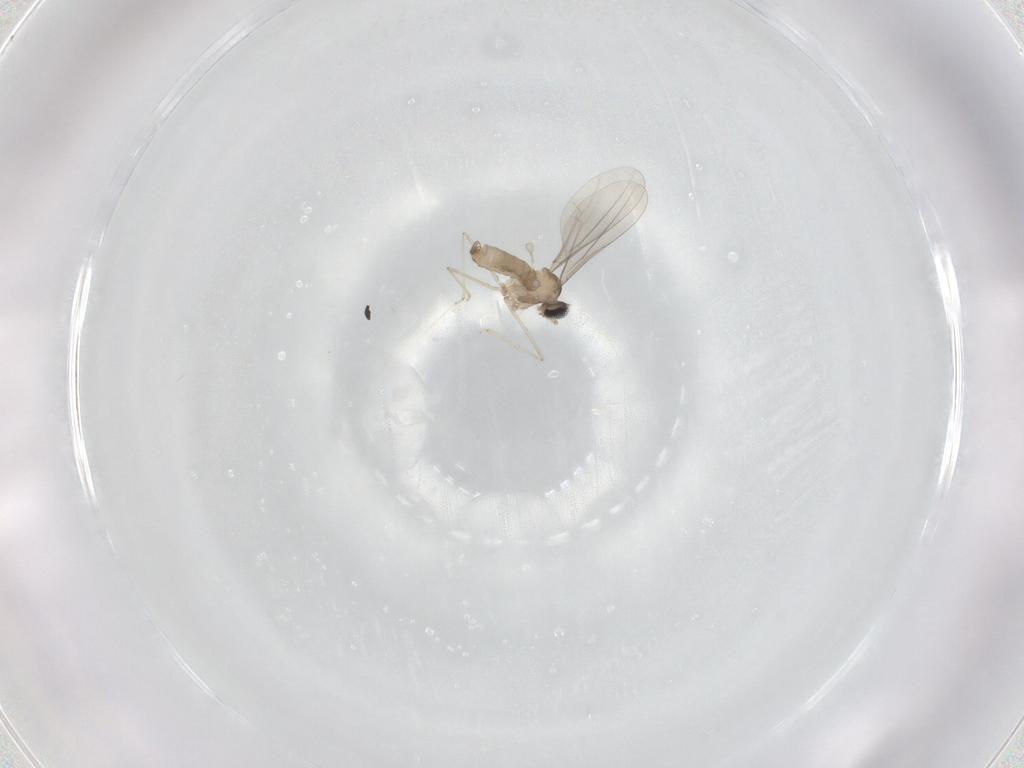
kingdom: Animalia
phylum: Arthropoda
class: Insecta
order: Diptera
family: Cecidomyiidae
